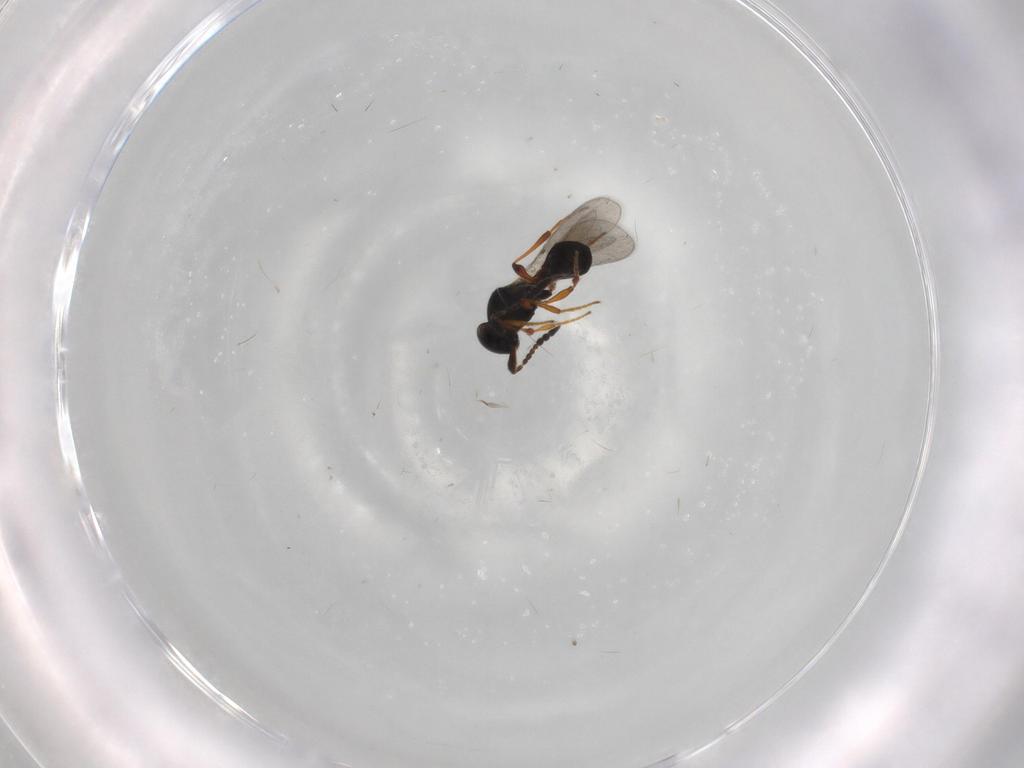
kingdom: Animalia
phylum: Arthropoda
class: Insecta
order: Hymenoptera
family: Platygastridae
